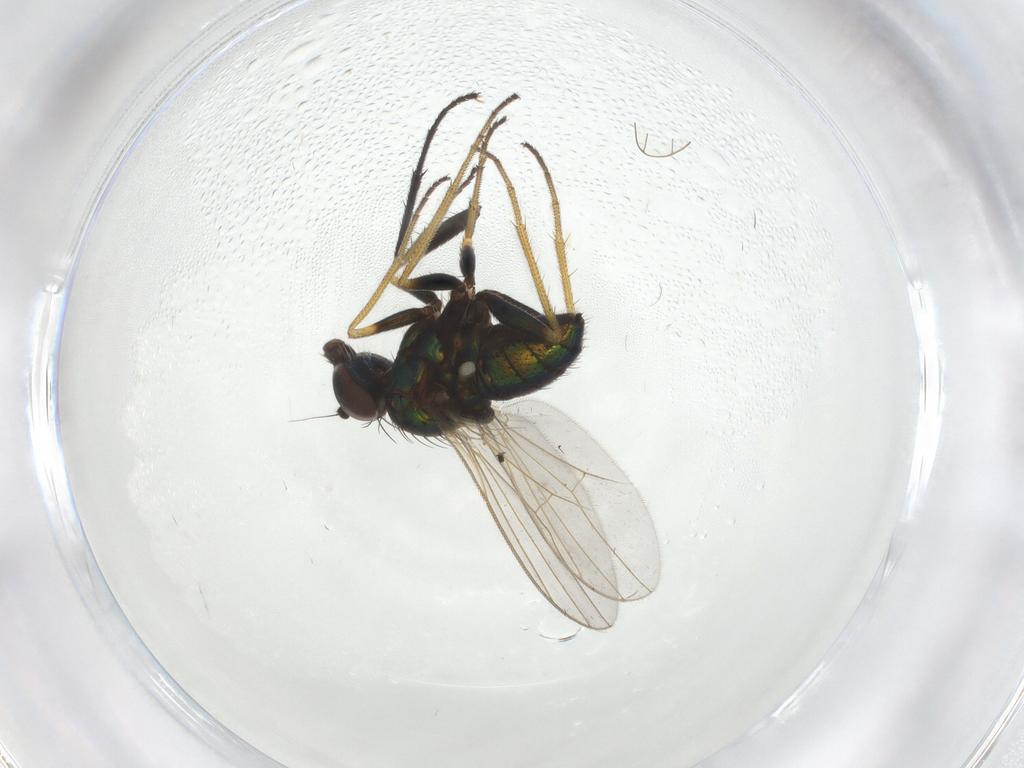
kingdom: Animalia
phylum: Arthropoda
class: Insecta
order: Diptera
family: Dolichopodidae
